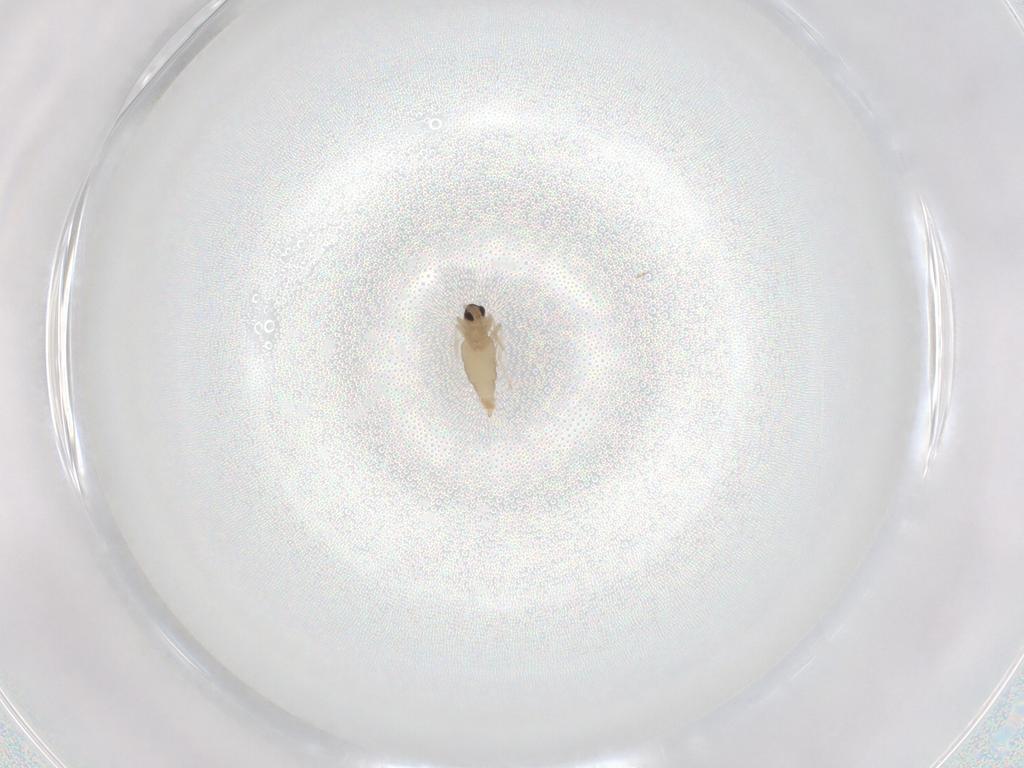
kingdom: Animalia
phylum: Arthropoda
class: Insecta
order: Diptera
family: Cecidomyiidae
